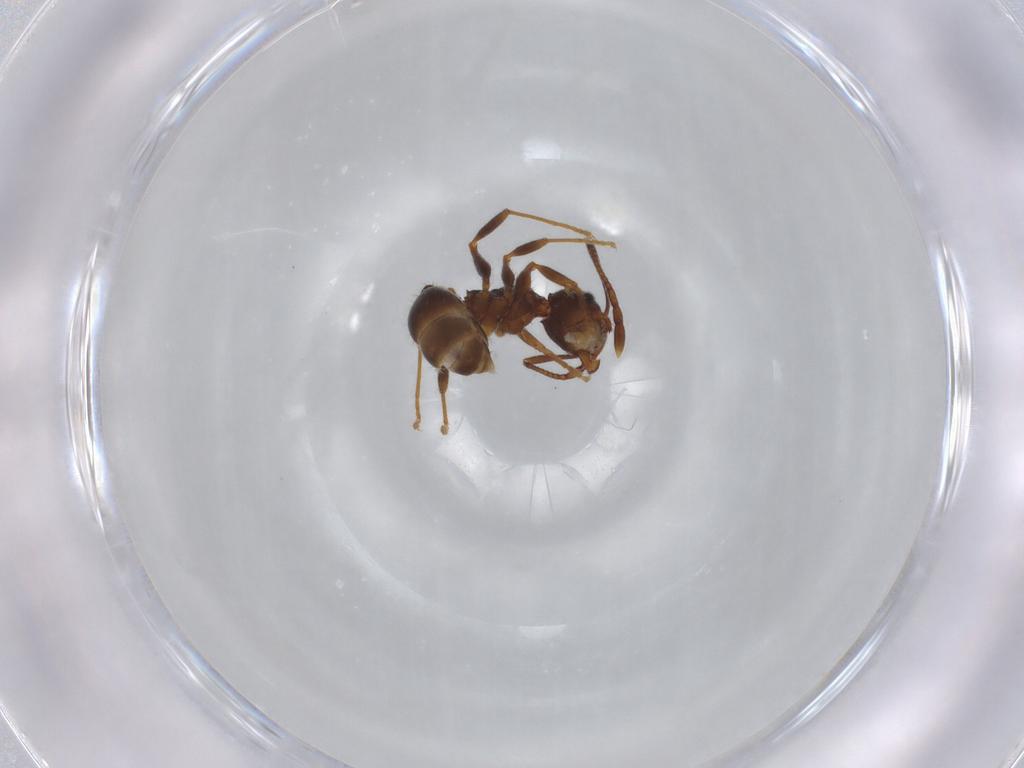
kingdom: Animalia
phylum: Arthropoda
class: Insecta
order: Hymenoptera
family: Formicidae
